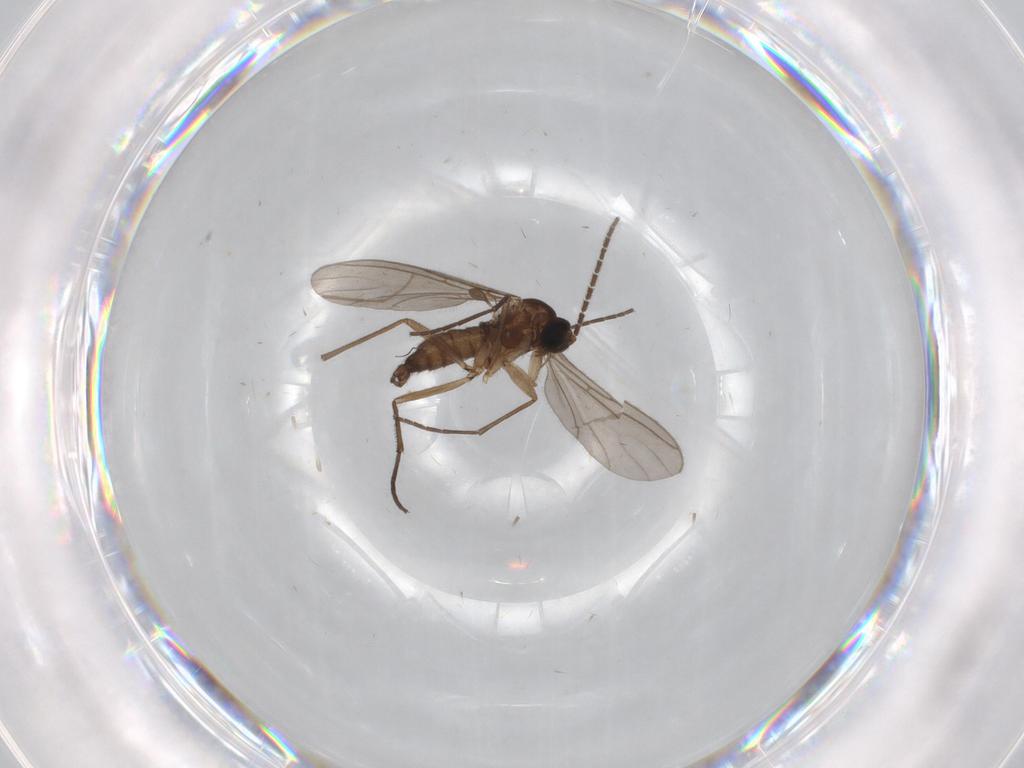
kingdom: Animalia
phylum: Arthropoda
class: Insecta
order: Diptera
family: Chironomidae
